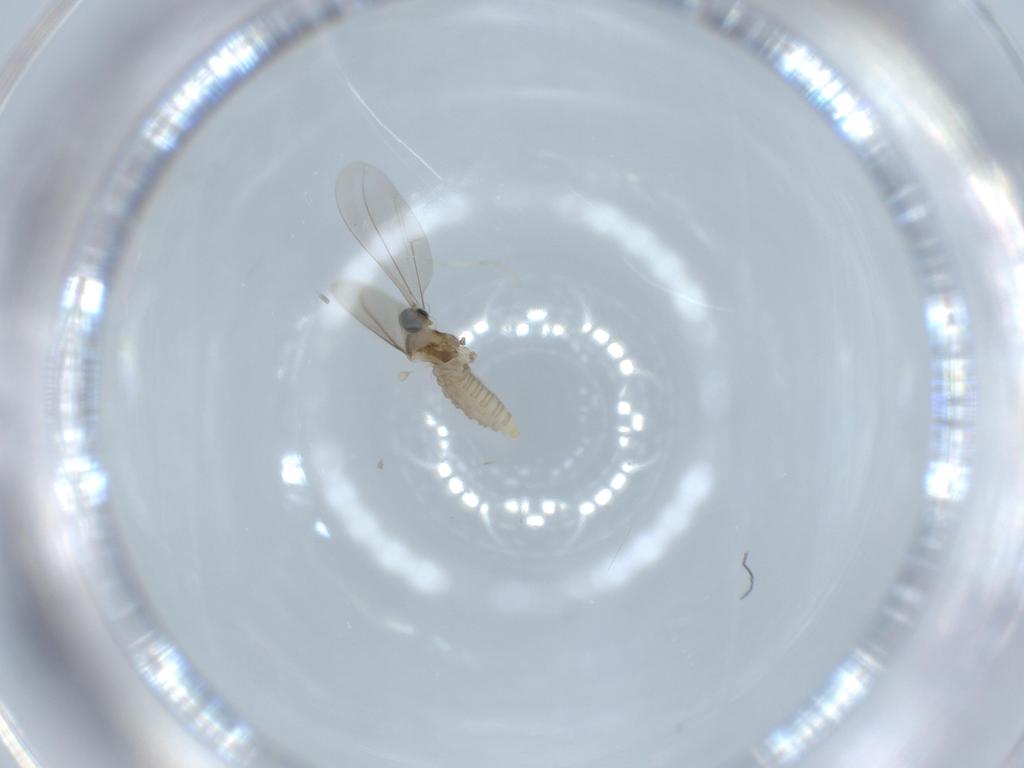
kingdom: Animalia
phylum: Arthropoda
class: Insecta
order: Diptera
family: Cecidomyiidae
